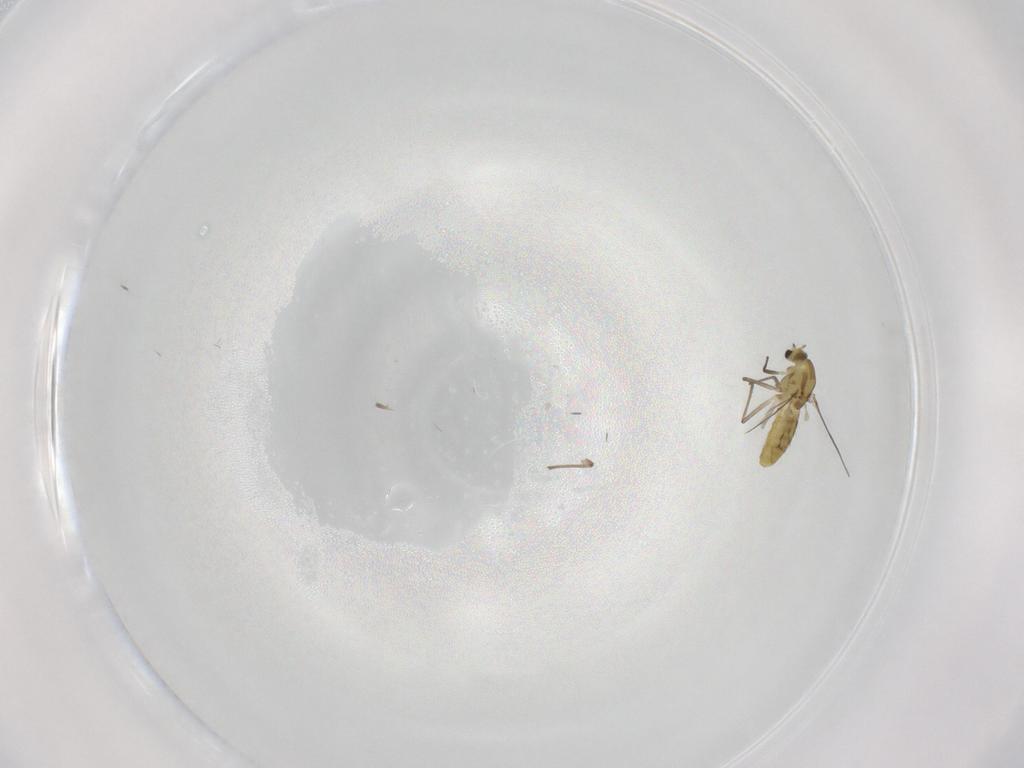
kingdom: Animalia
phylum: Arthropoda
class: Insecta
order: Diptera
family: Chironomidae
